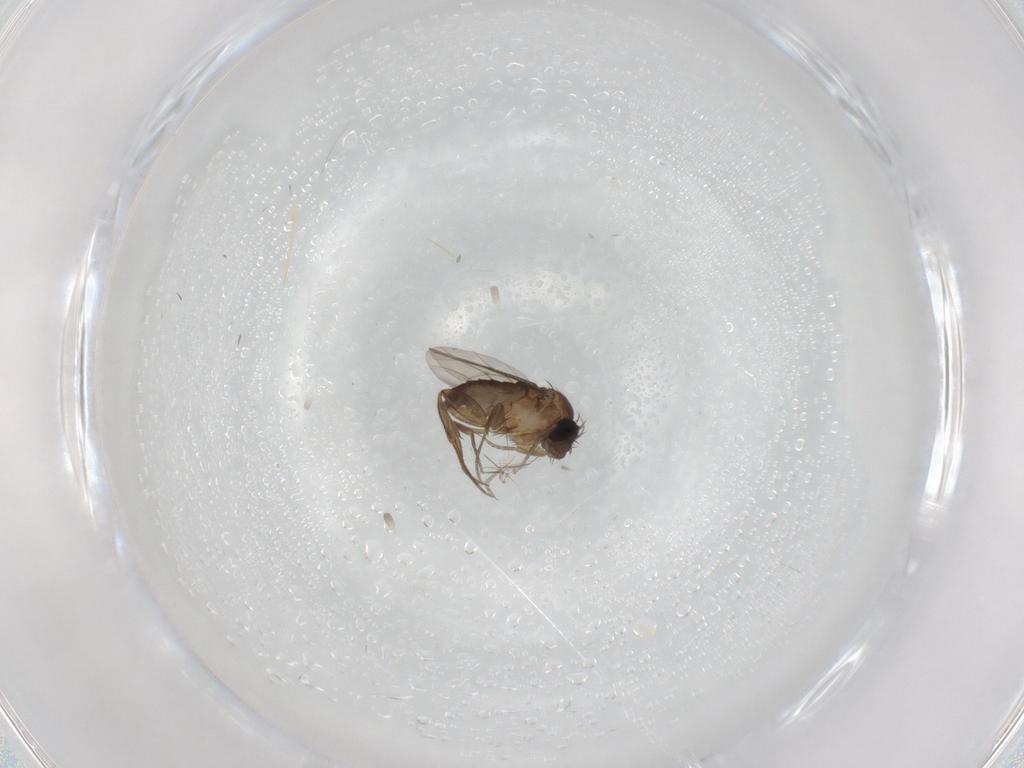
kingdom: Animalia
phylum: Arthropoda
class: Insecta
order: Diptera
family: Phoridae
